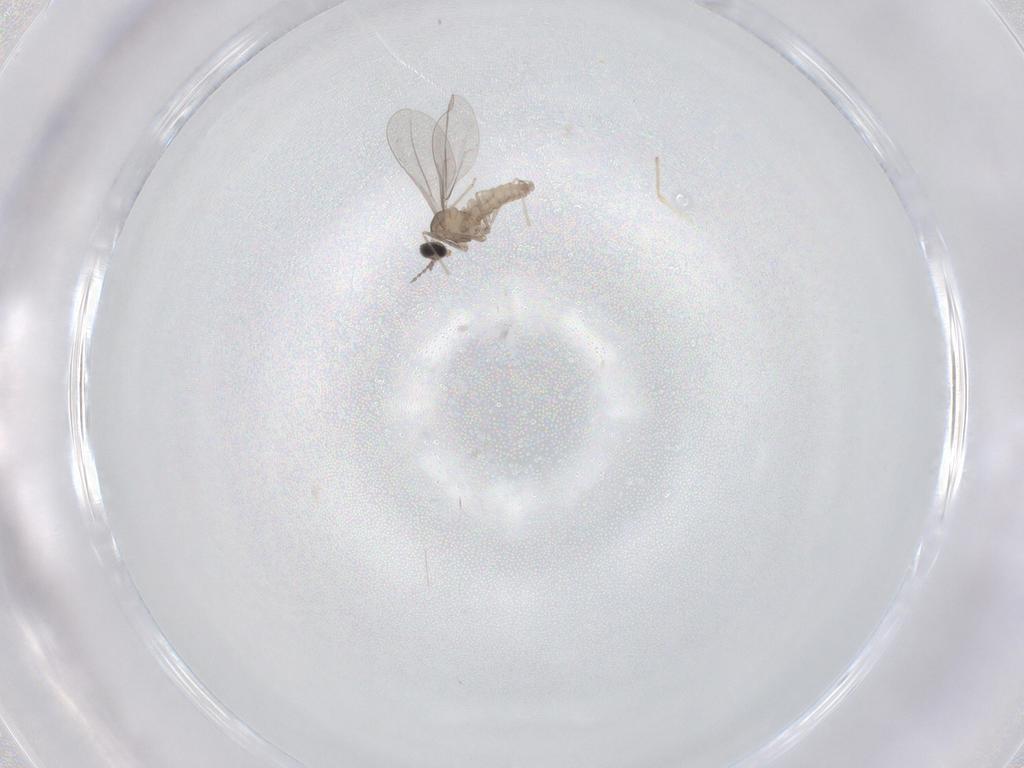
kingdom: Animalia
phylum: Arthropoda
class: Insecta
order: Diptera
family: Cecidomyiidae
